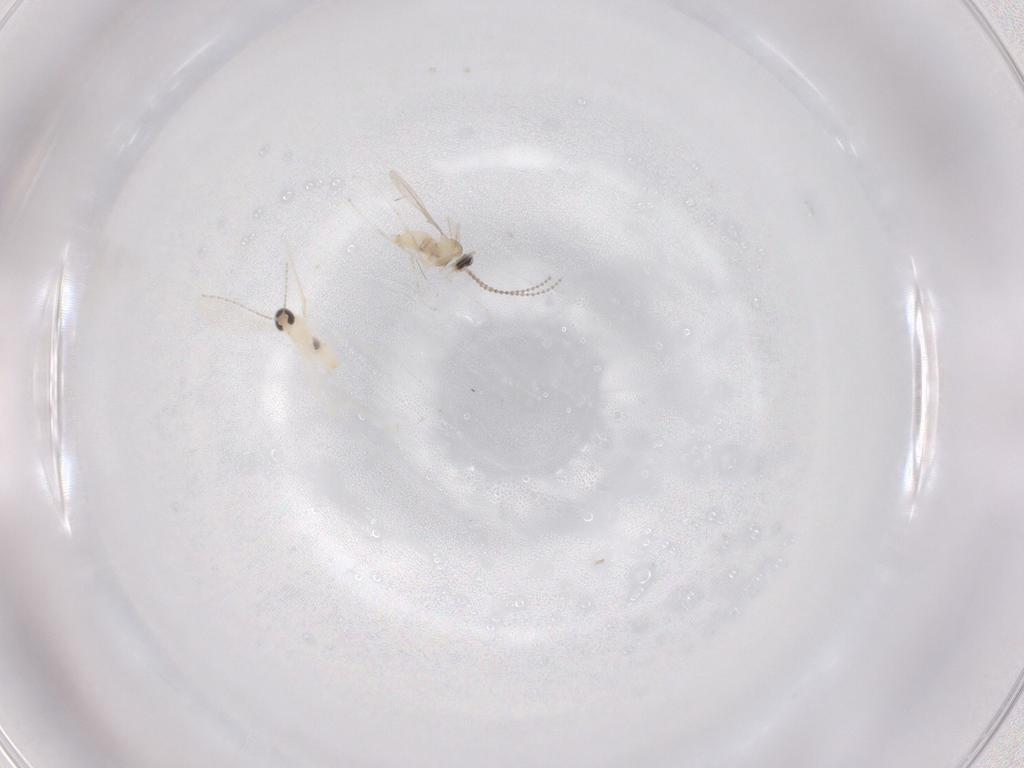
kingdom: Animalia
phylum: Arthropoda
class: Insecta
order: Diptera
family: Cecidomyiidae
